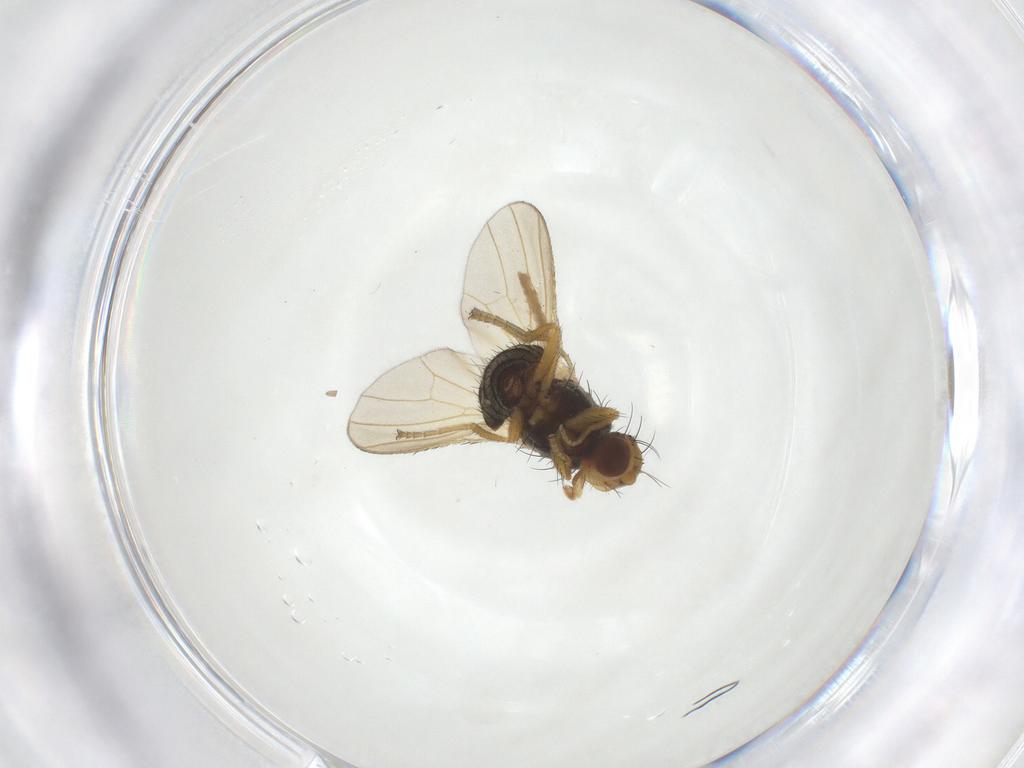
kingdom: Animalia
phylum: Arthropoda
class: Insecta
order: Diptera
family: Heleomyzidae
